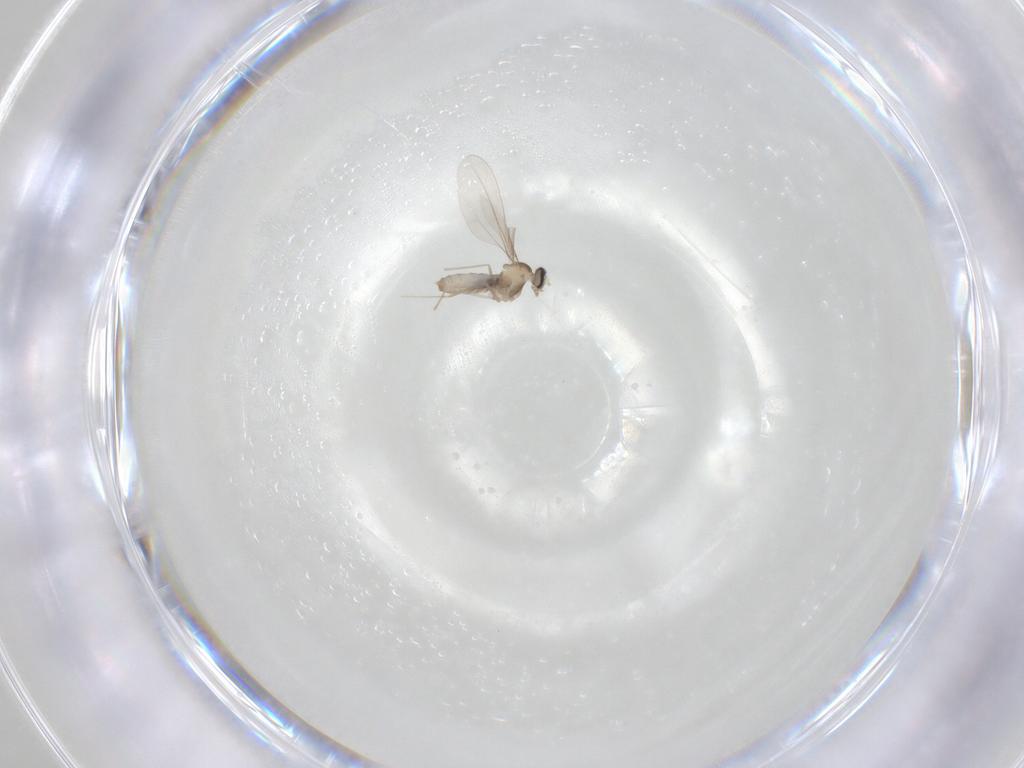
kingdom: Animalia
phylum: Arthropoda
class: Insecta
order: Diptera
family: Cecidomyiidae
